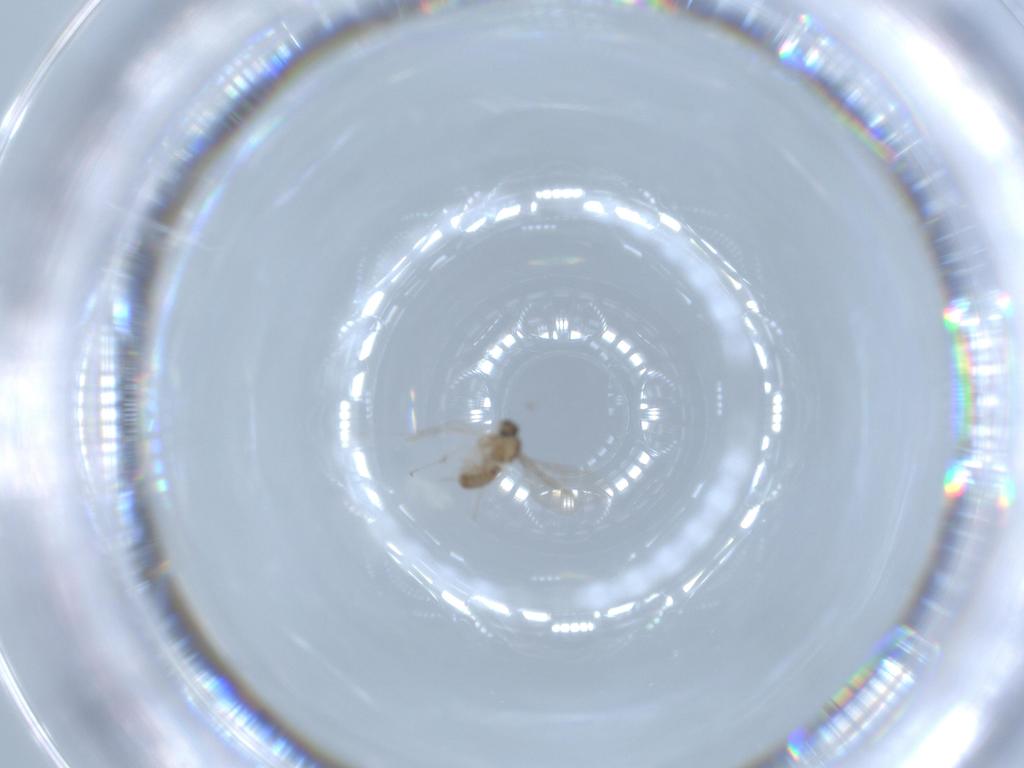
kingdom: Animalia
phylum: Arthropoda
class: Insecta
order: Diptera
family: Cecidomyiidae
